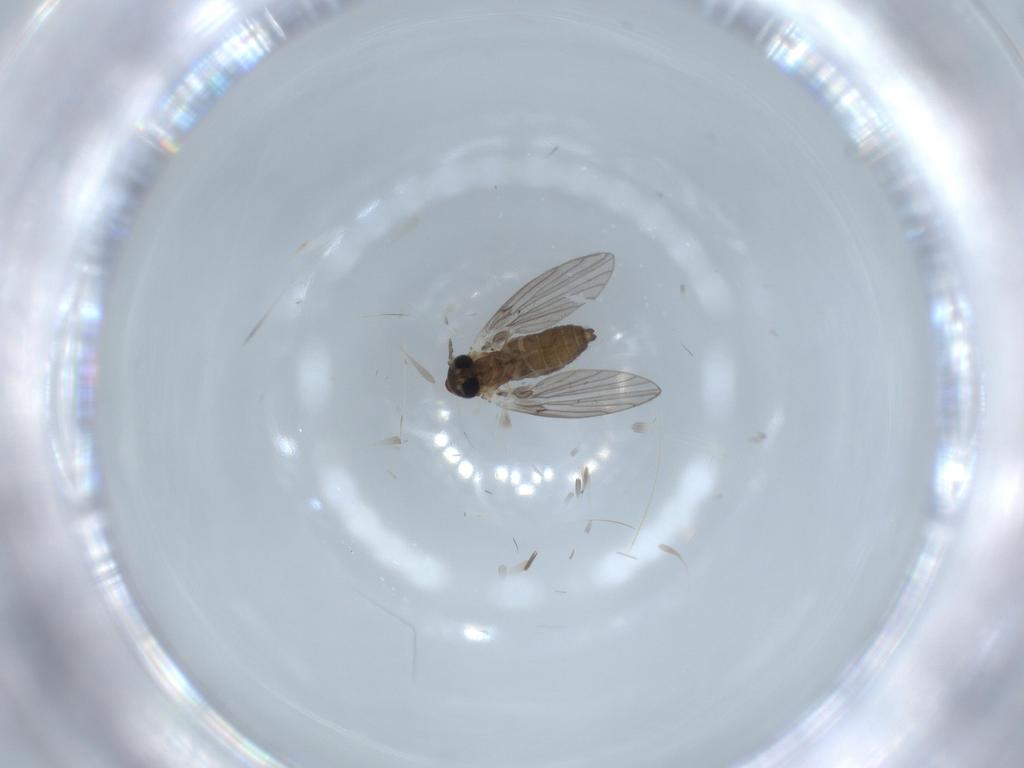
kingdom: Animalia
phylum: Arthropoda
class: Insecta
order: Diptera
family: Psychodidae
